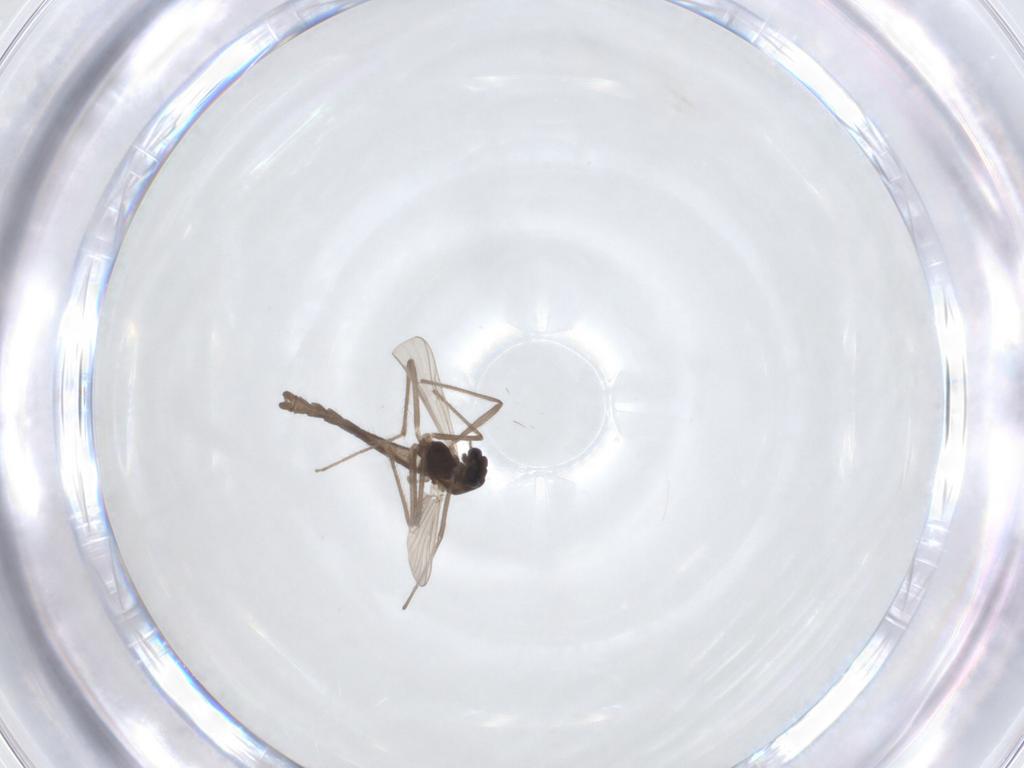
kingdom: Animalia
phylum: Arthropoda
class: Insecta
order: Diptera
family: Chironomidae
